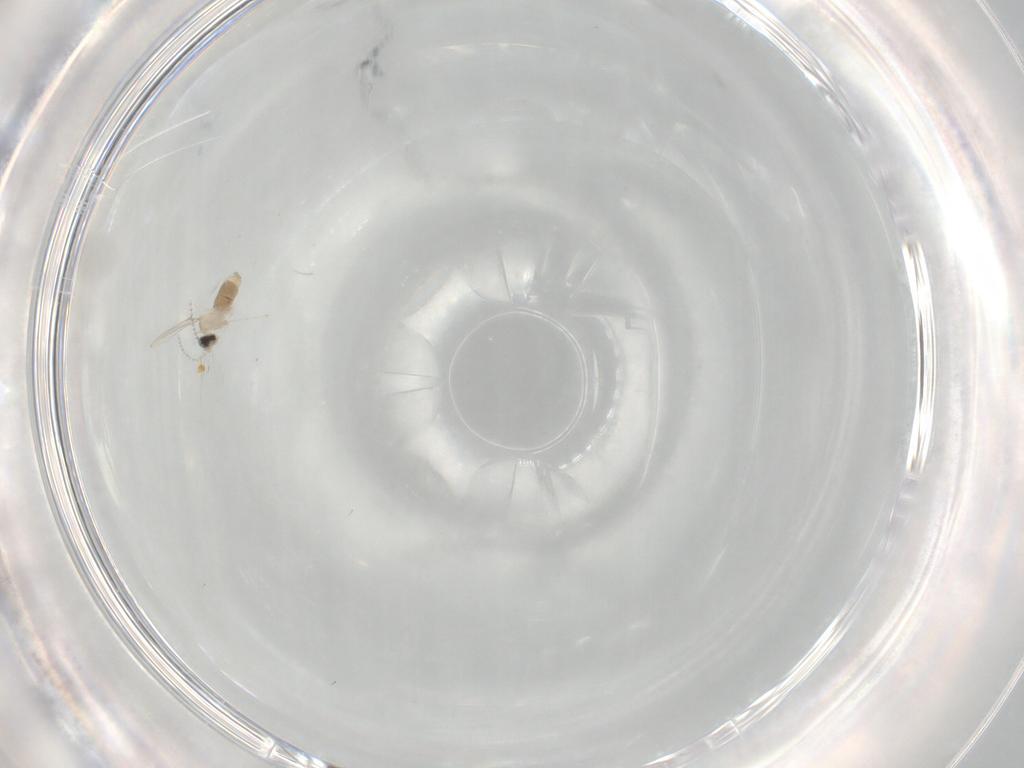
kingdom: Animalia
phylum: Arthropoda
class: Insecta
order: Diptera
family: Cecidomyiidae
